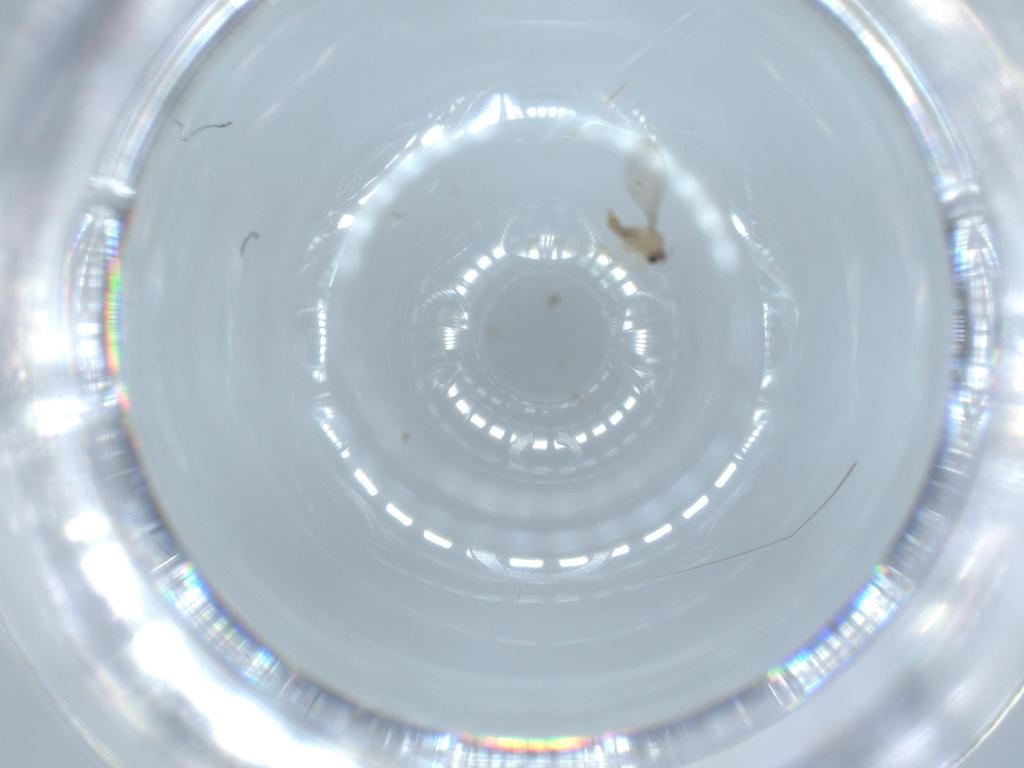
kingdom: Animalia
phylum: Arthropoda
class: Insecta
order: Diptera
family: Cecidomyiidae
